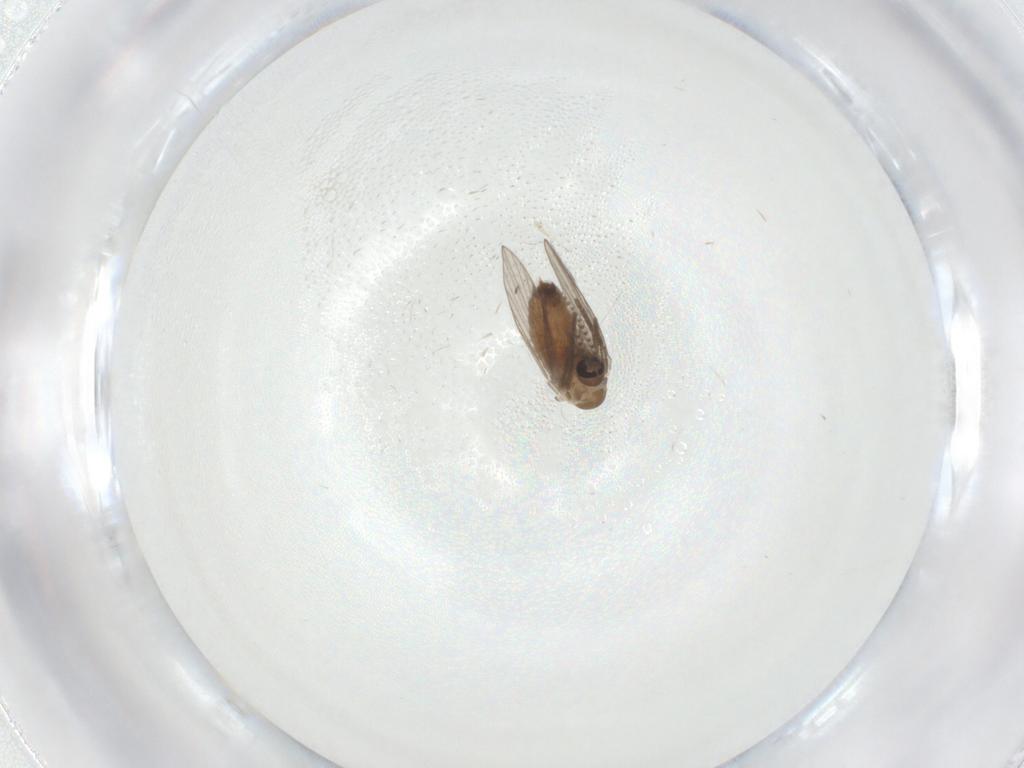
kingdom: Animalia
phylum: Arthropoda
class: Insecta
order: Diptera
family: Psychodidae
